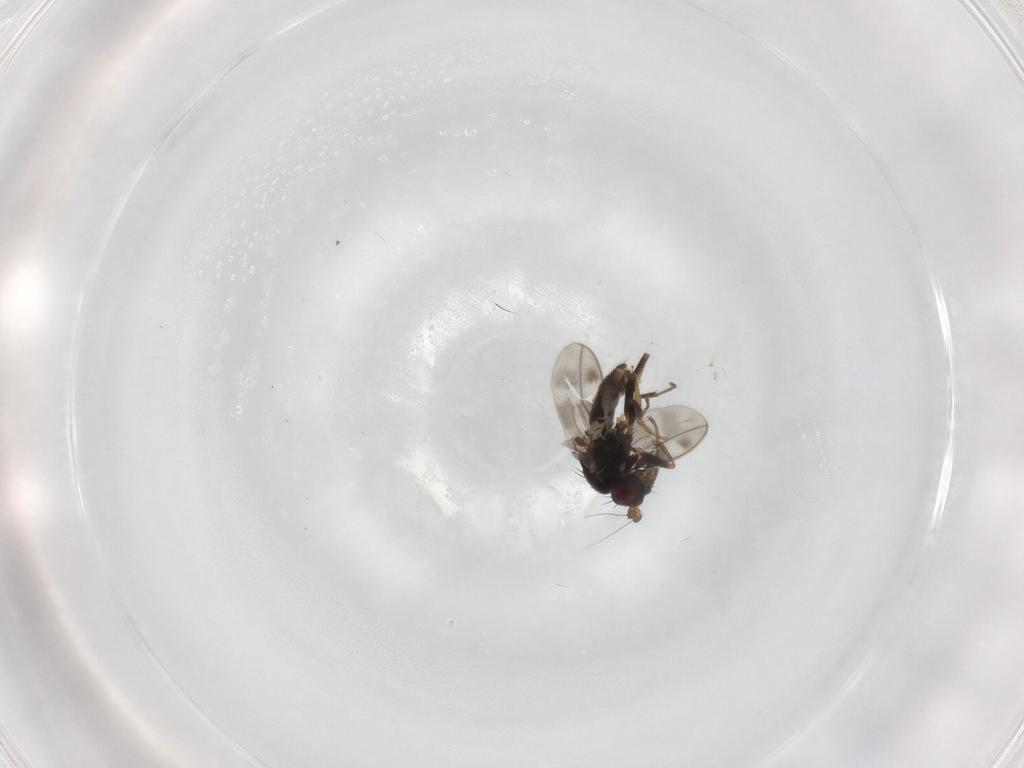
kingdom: Animalia
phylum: Arthropoda
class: Insecta
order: Diptera
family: Sphaeroceridae
